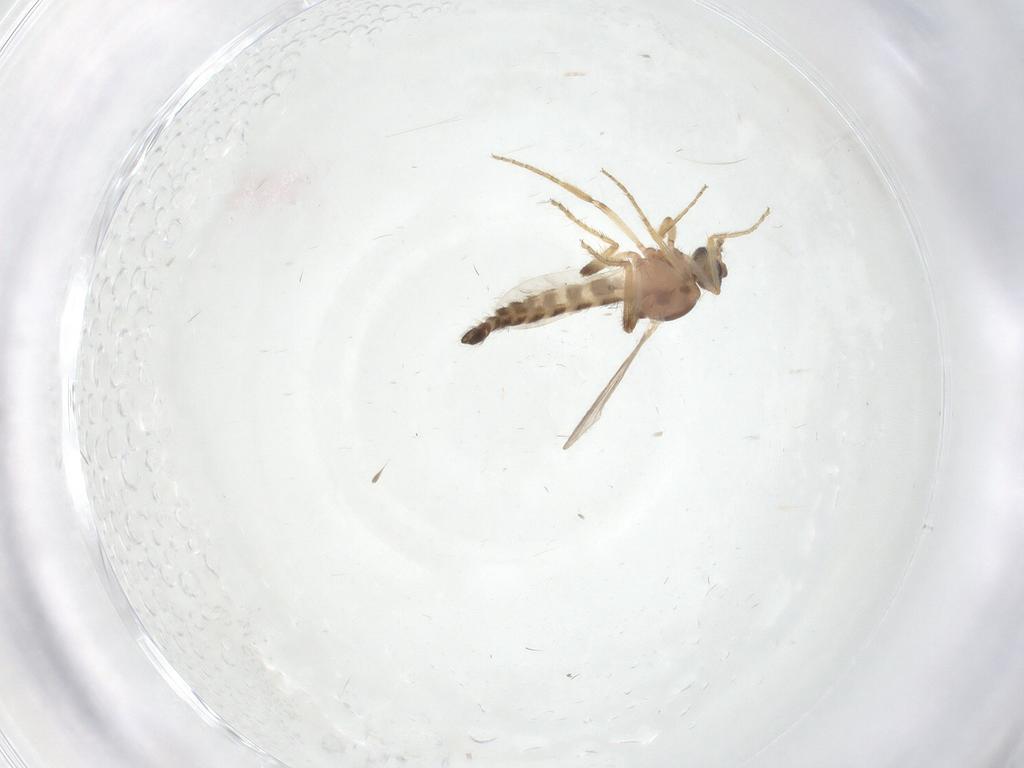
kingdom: Animalia
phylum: Arthropoda
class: Insecta
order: Diptera
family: Cecidomyiidae
